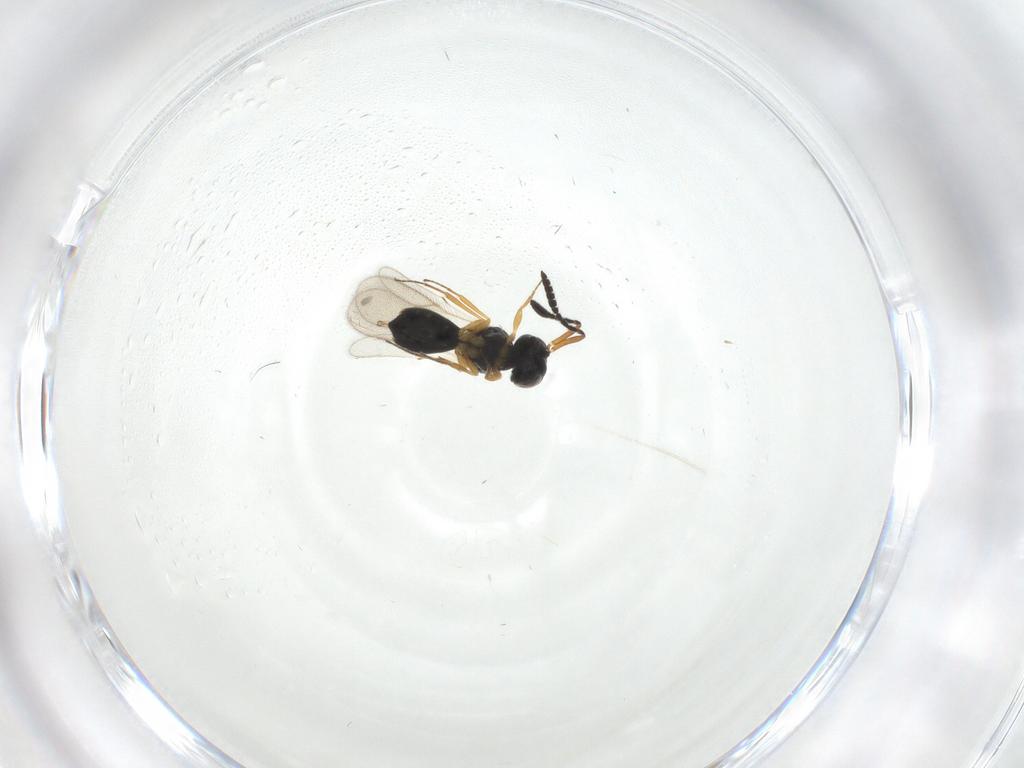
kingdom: Animalia
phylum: Arthropoda
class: Insecta
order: Hymenoptera
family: Scelionidae
